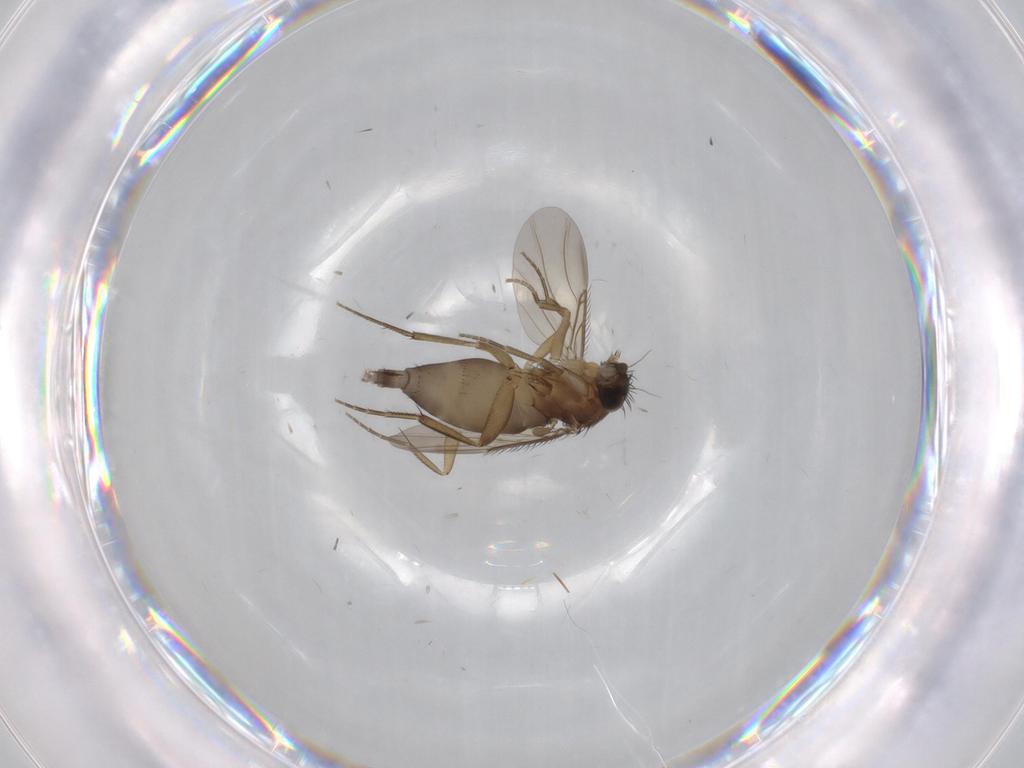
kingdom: Animalia
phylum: Arthropoda
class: Insecta
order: Diptera
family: Phoridae
